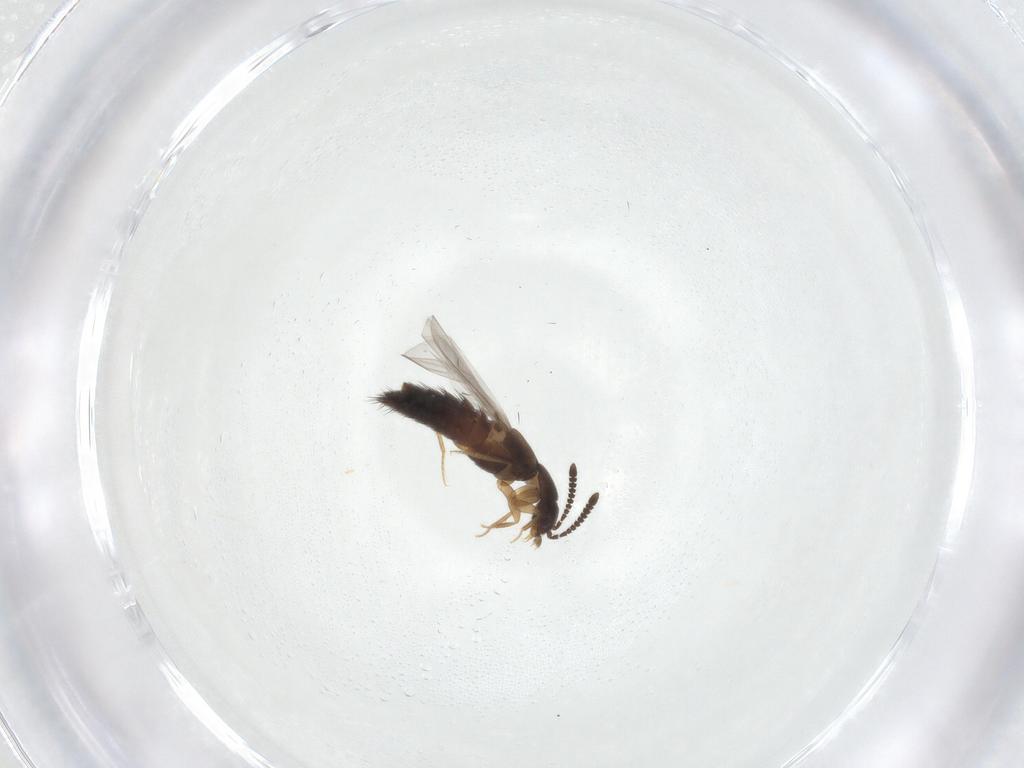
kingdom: Animalia
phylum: Arthropoda
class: Insecta
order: Coleoptera
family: Staphylinidae
